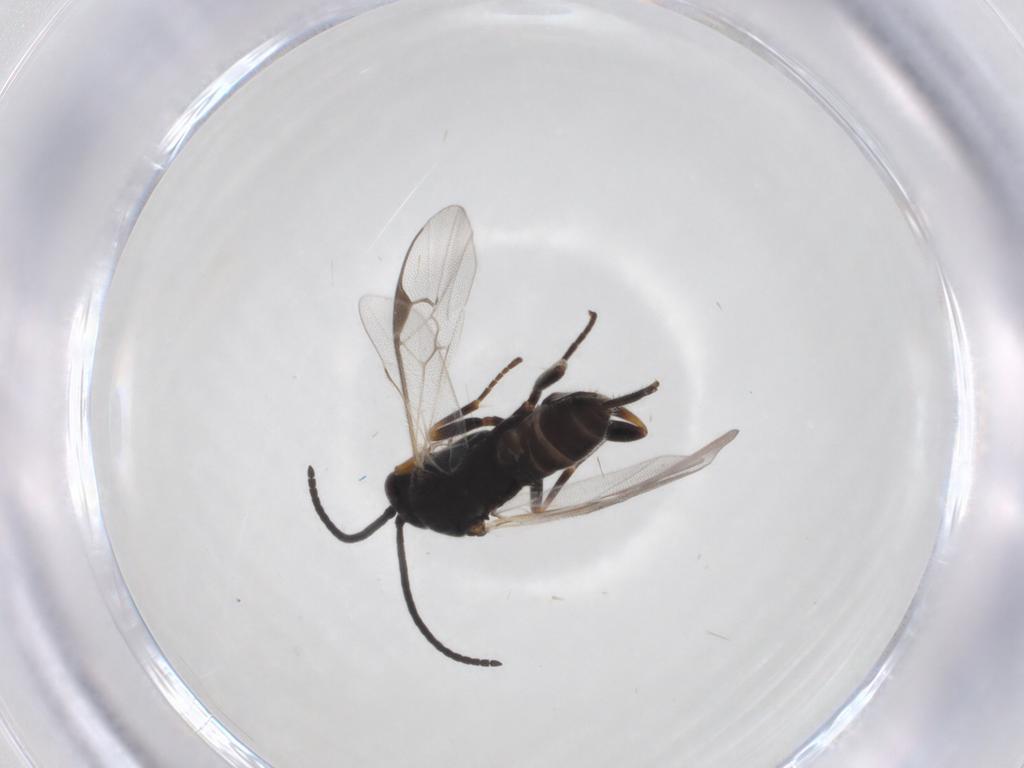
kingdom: Animalia
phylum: Arthropoda
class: Insecta
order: Hymenoptera
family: Braconidae
